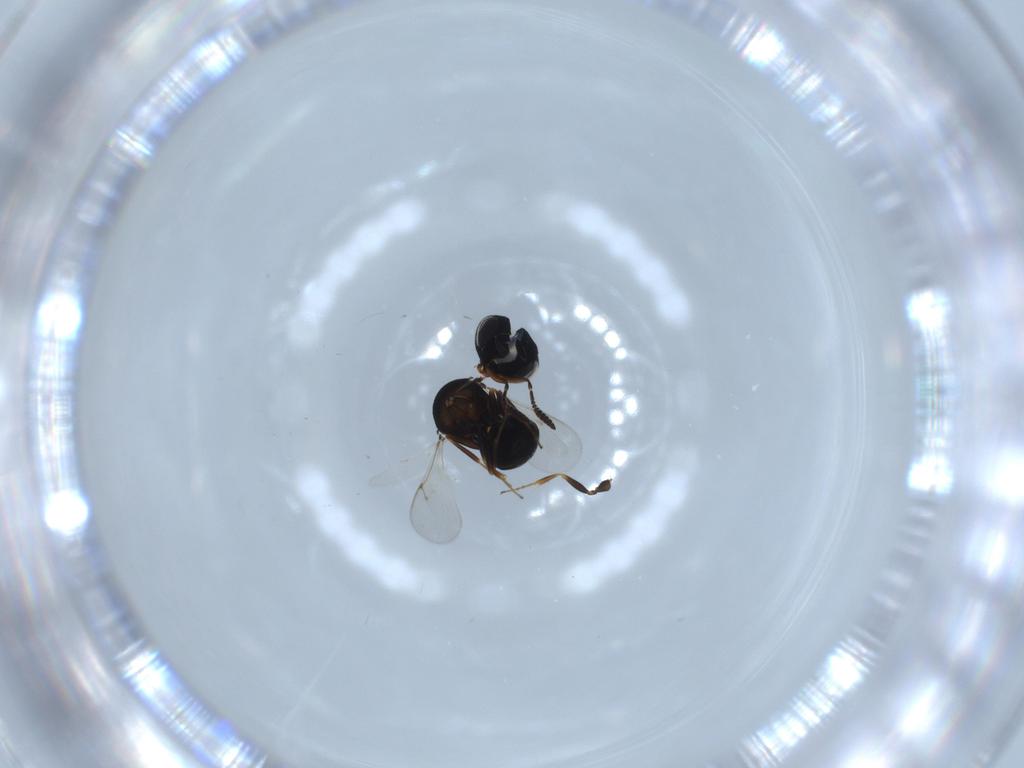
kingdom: Animalia
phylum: Arthropoda
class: Insecta
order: Hymenoptera
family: Scelionidae
